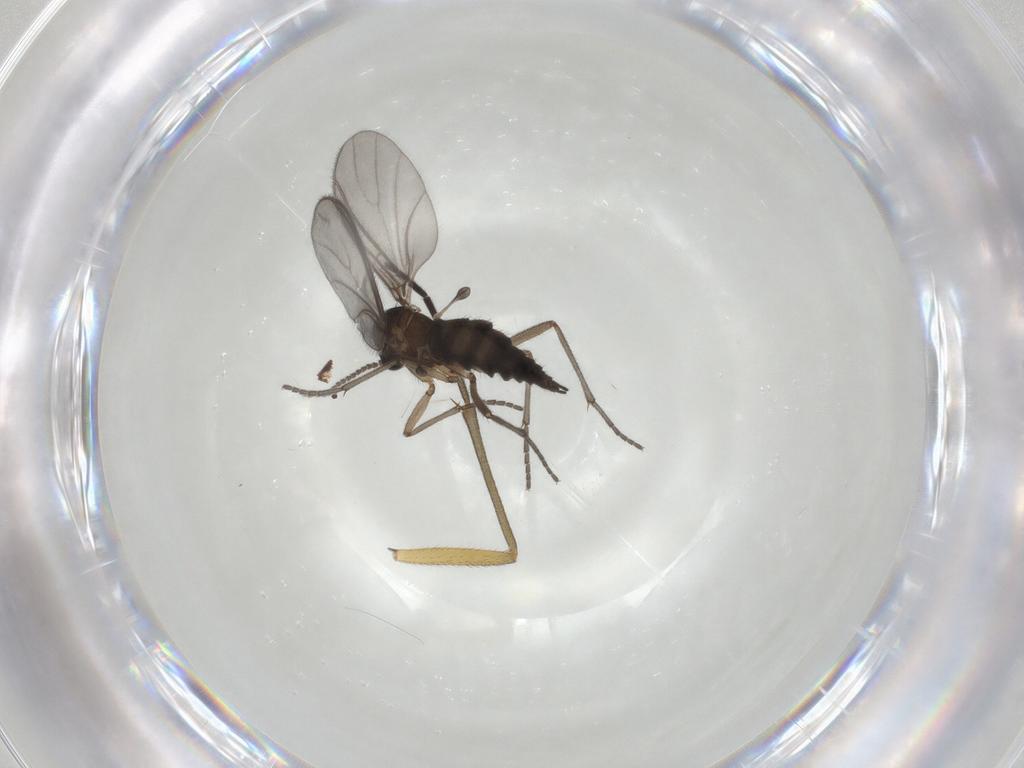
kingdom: Animalia
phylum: Arthropoda
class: Insecta
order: Diptera
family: Sciaridae
